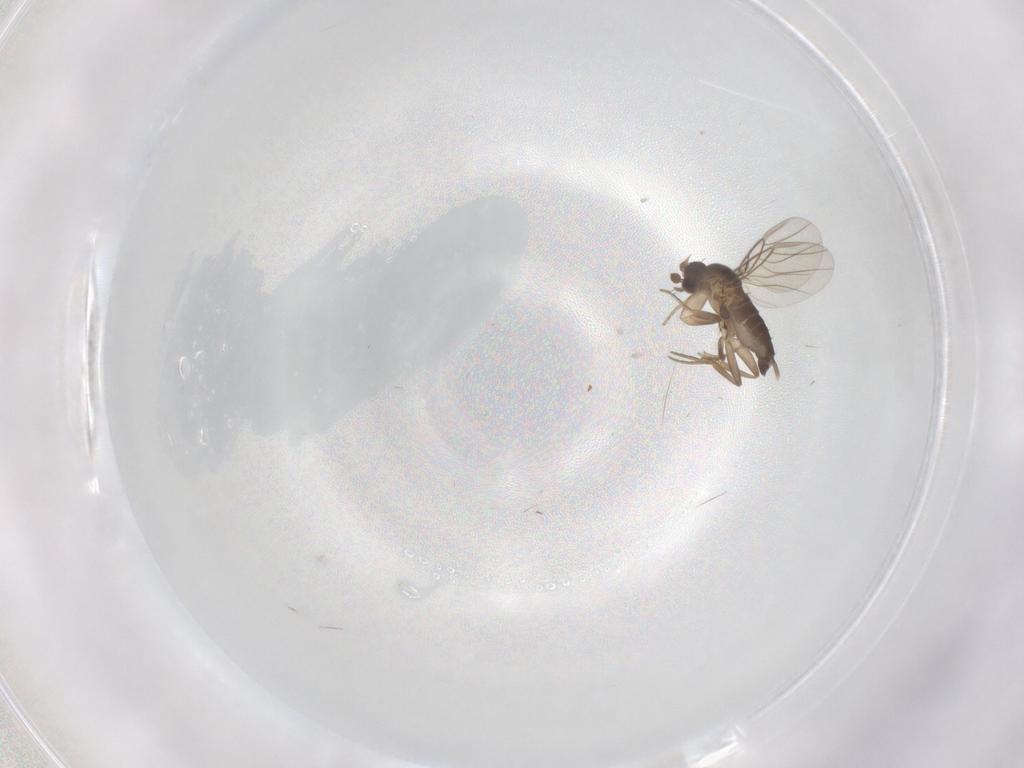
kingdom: Animalia
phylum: Arthropoda
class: Insecta
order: Diptera
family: Phoridae
